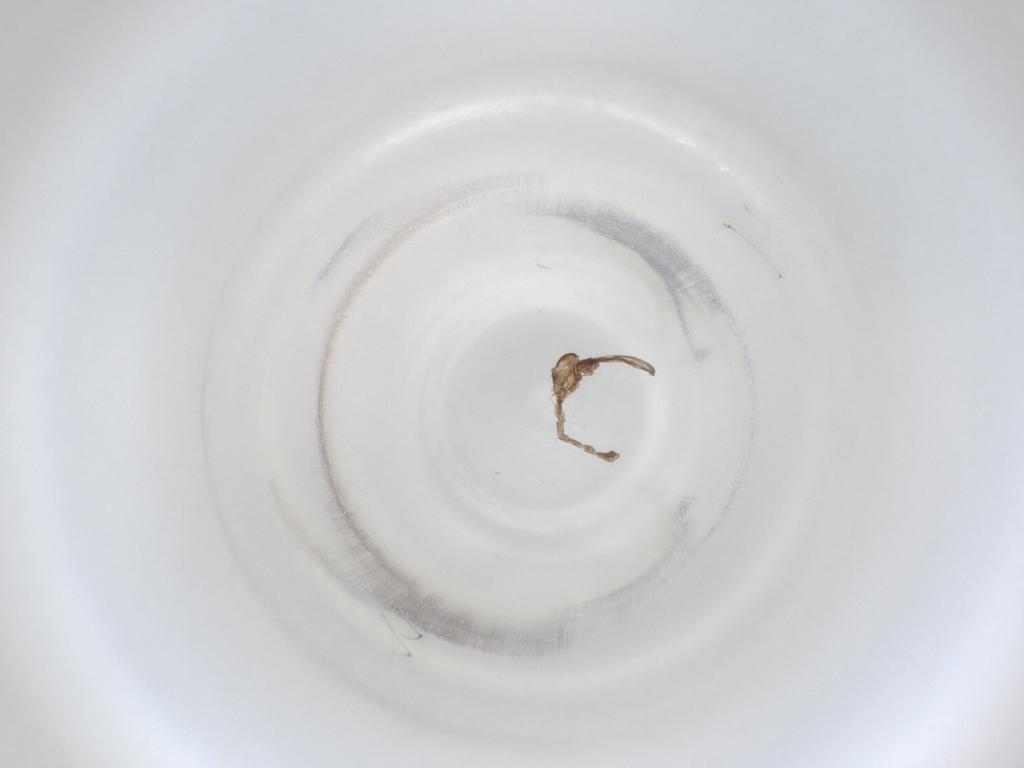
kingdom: Animalia
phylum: Arthropoda
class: Insecta
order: Diptera
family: Cecidomyiidae
